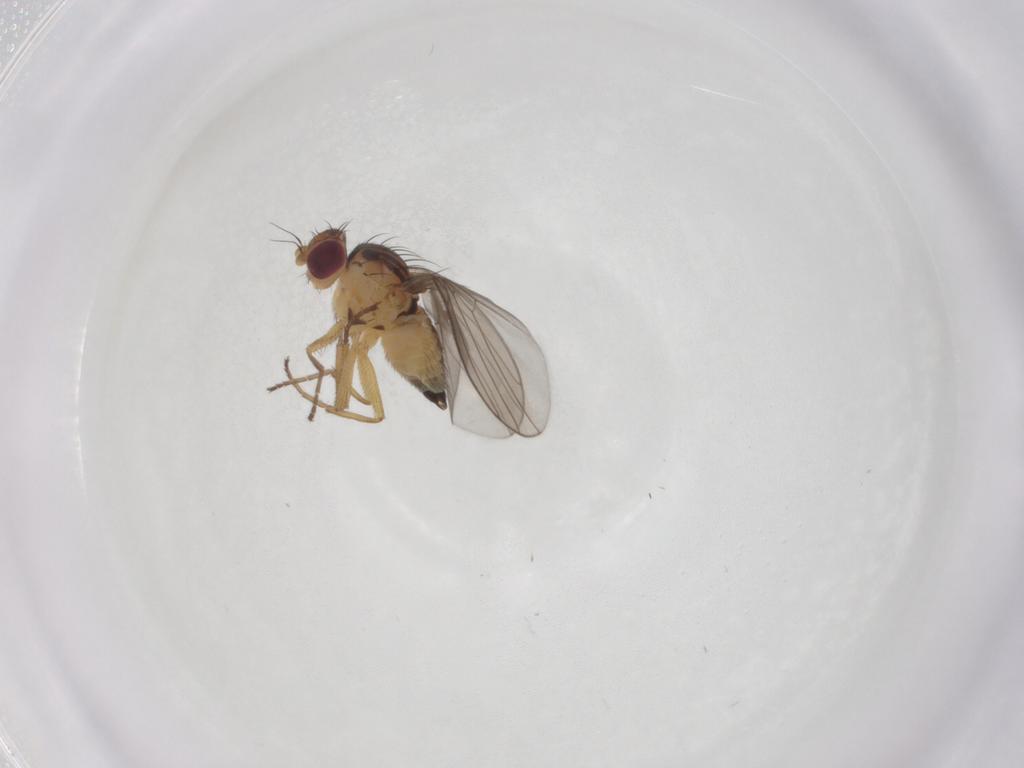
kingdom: Animalia
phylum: Arthropoda
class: Insecta
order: Diptera
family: Agromyzidae
